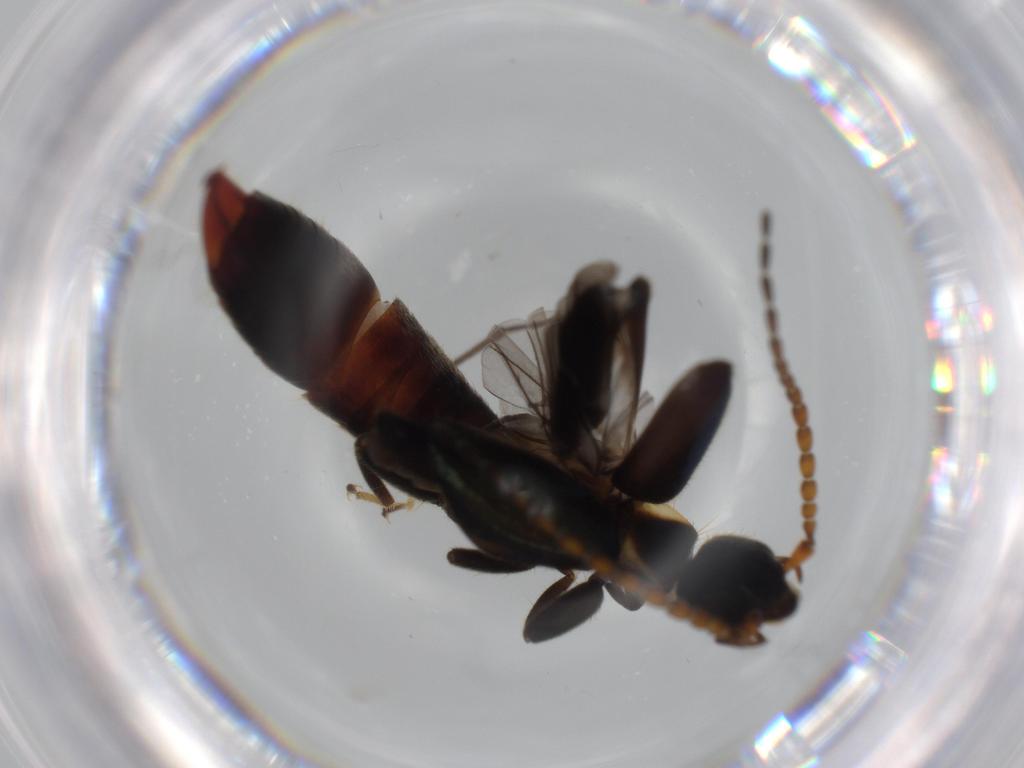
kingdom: Animalia
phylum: Arthropoda
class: Insecta
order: Dermaptera
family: Forficulidae
